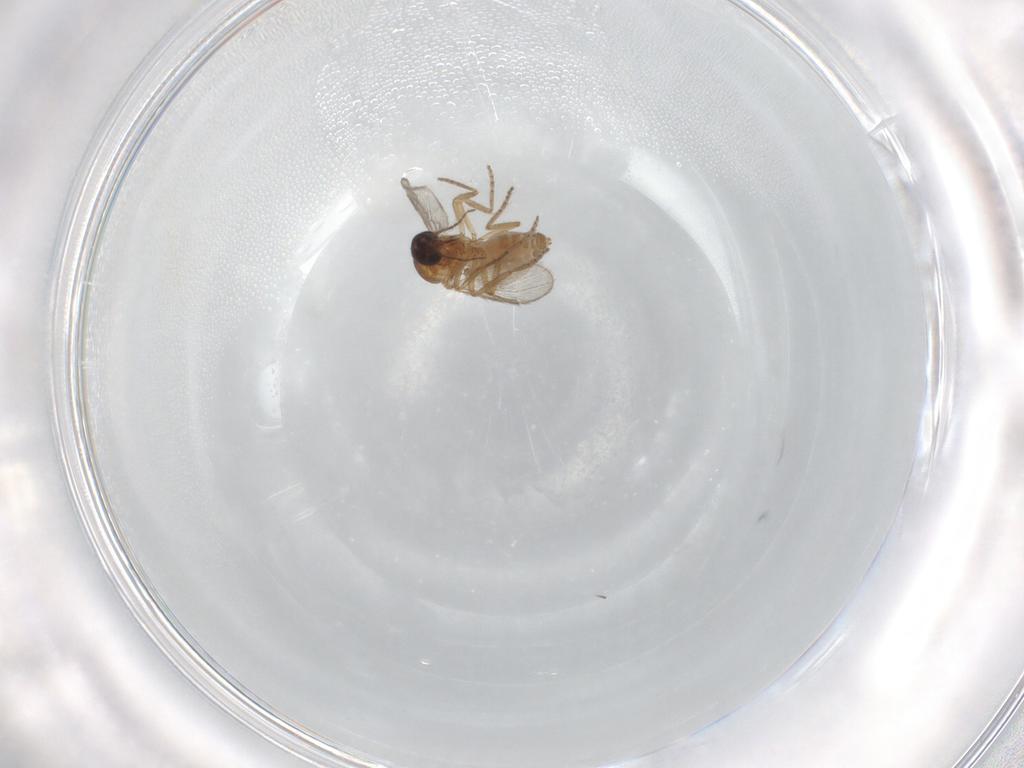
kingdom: Animalia
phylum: Arthropoda
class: Insecta
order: Diptera
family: Ceratopogonidae
